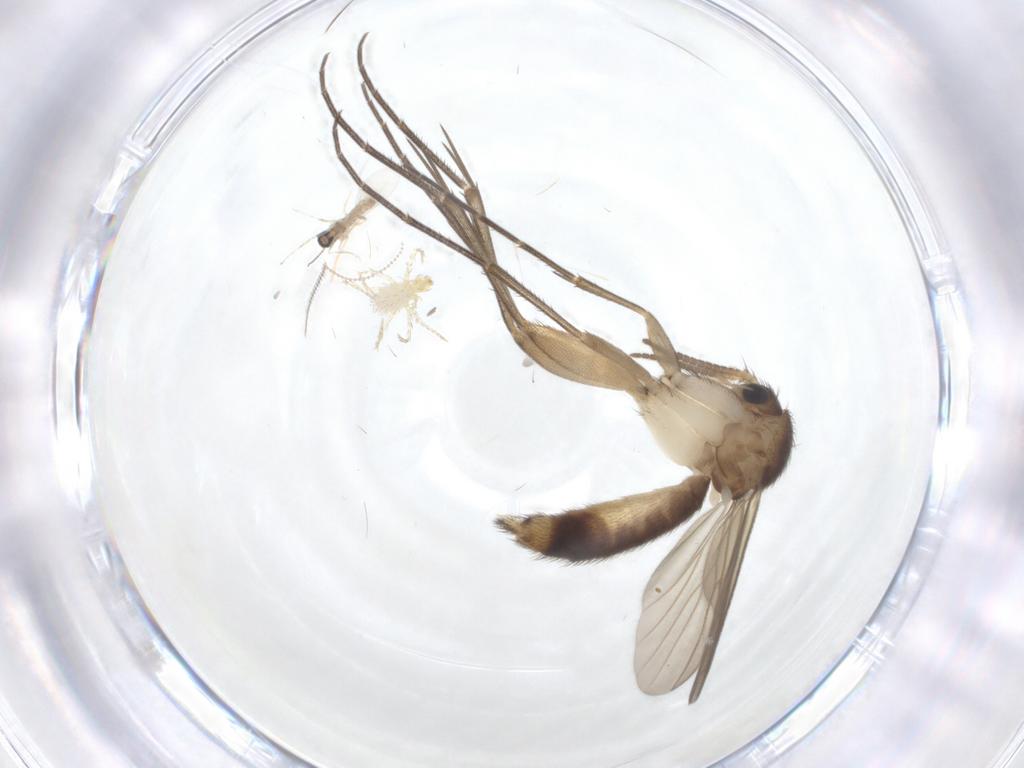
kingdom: Animalia
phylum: Arthropoda
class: Insecta
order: Diptera
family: Mycetophilidae
